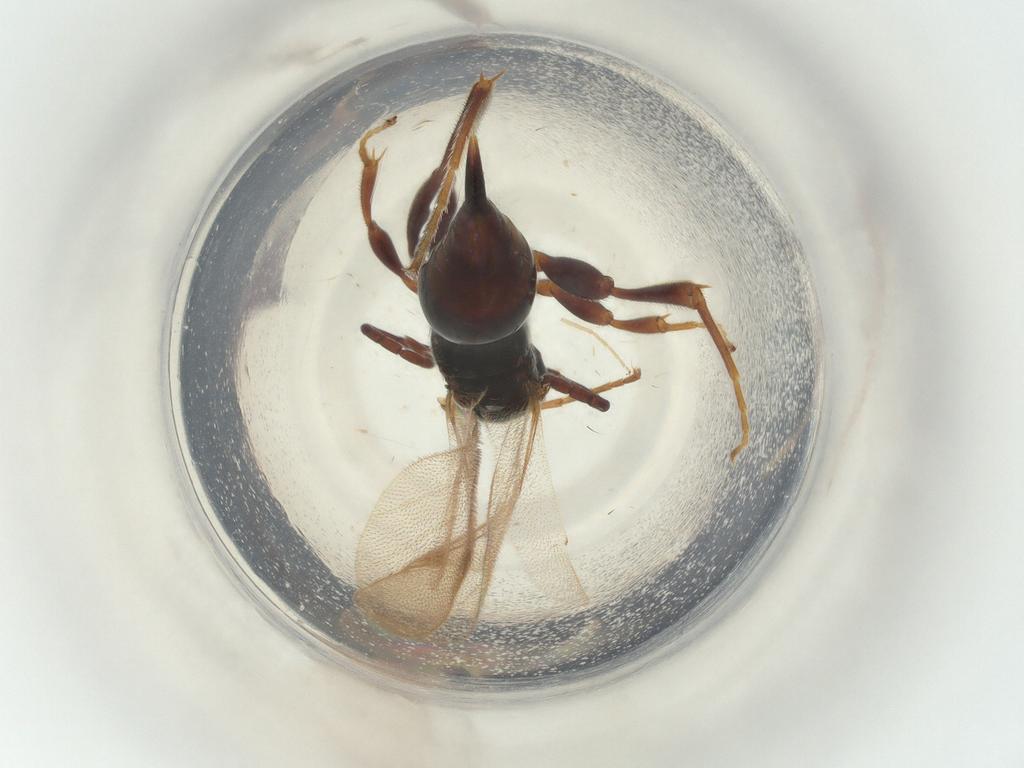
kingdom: Animalia
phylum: Arthropoda
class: Insecta
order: Hymenoptera
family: Proctotrupidae
